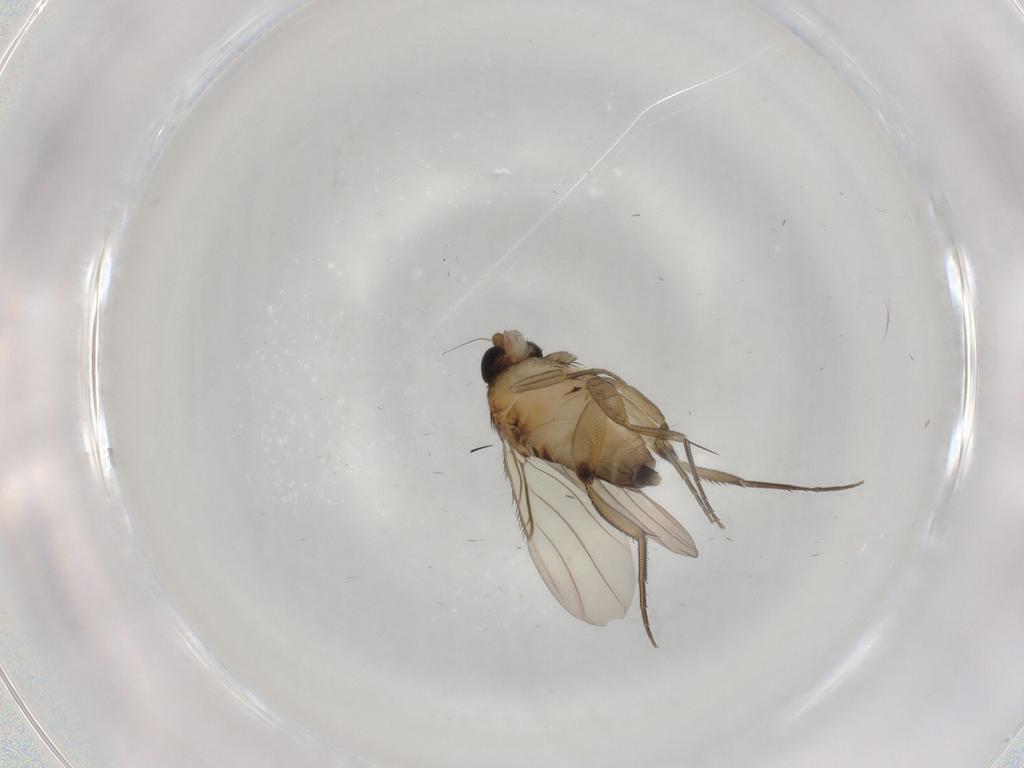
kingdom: Animalia
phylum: Arthropoda
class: Insecta
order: Diptera
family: Phoridae
